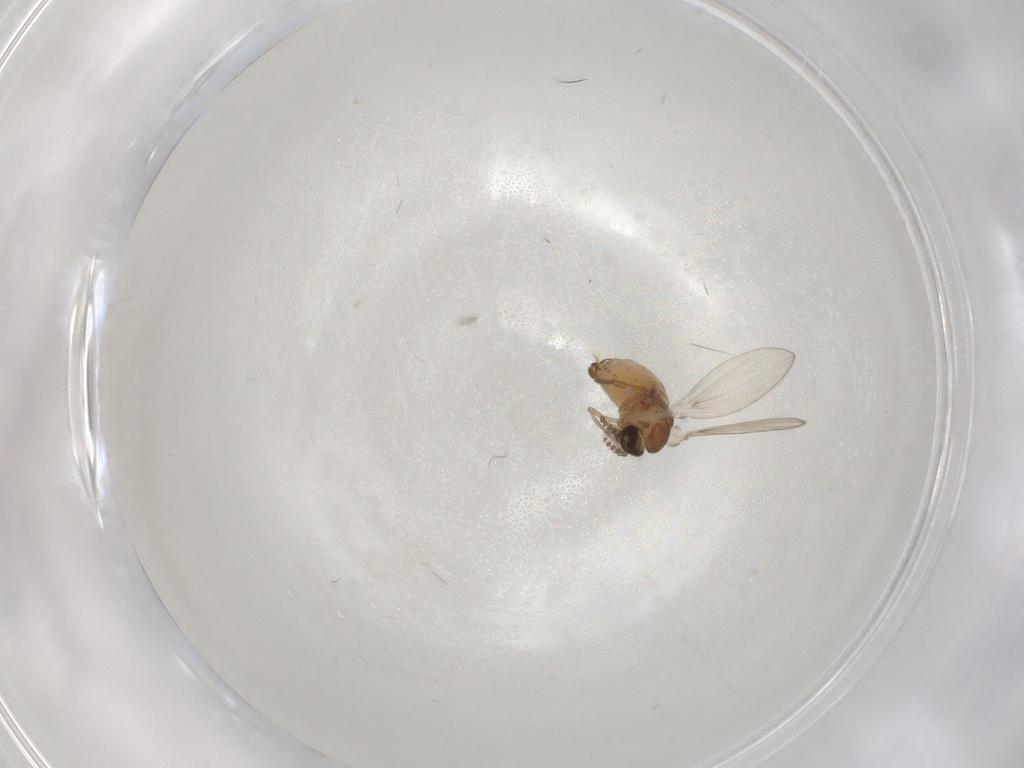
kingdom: Animalia
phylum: Arthropoda
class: Insecta
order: Diptera
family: Psychodidae
